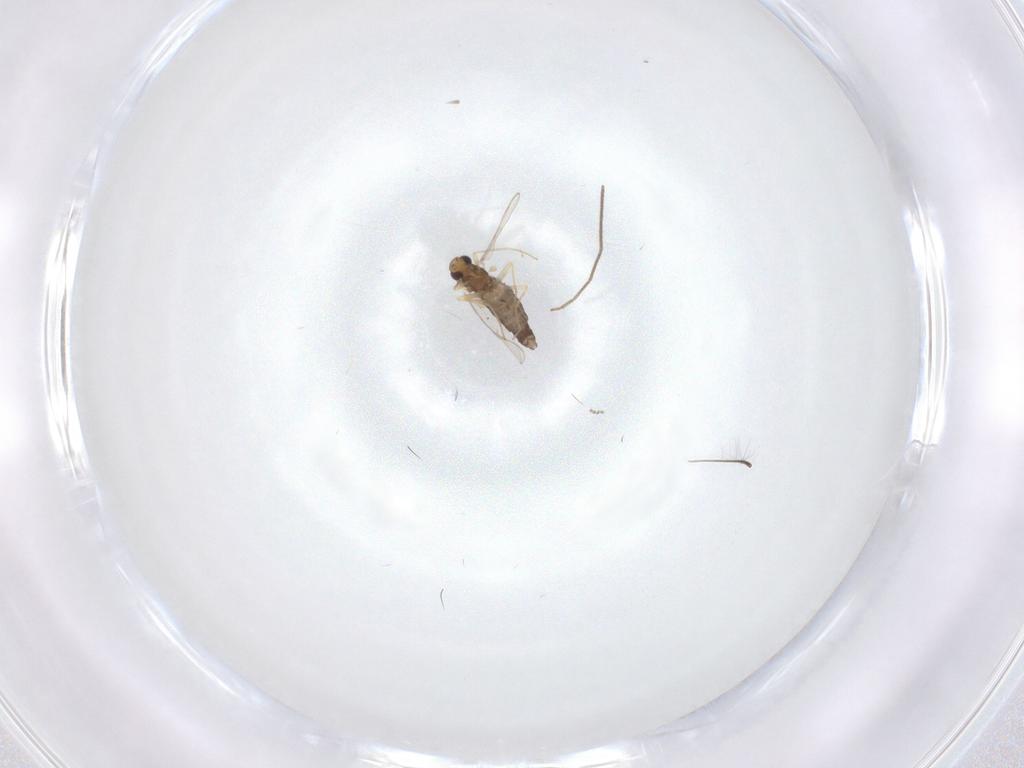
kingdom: Animalia
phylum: Arthropoda
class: Insecta
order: Diptera
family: Chironomidae
